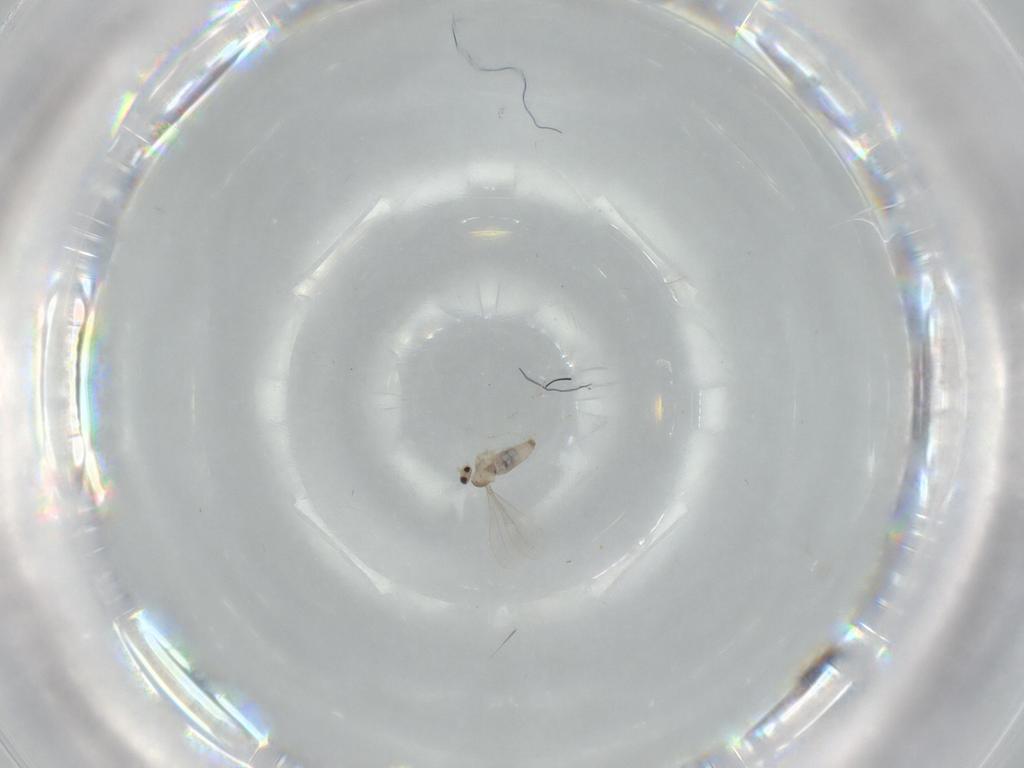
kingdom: Animalia
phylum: Arthropoda
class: Insecta
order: Diptera
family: Cecidomyiidae
